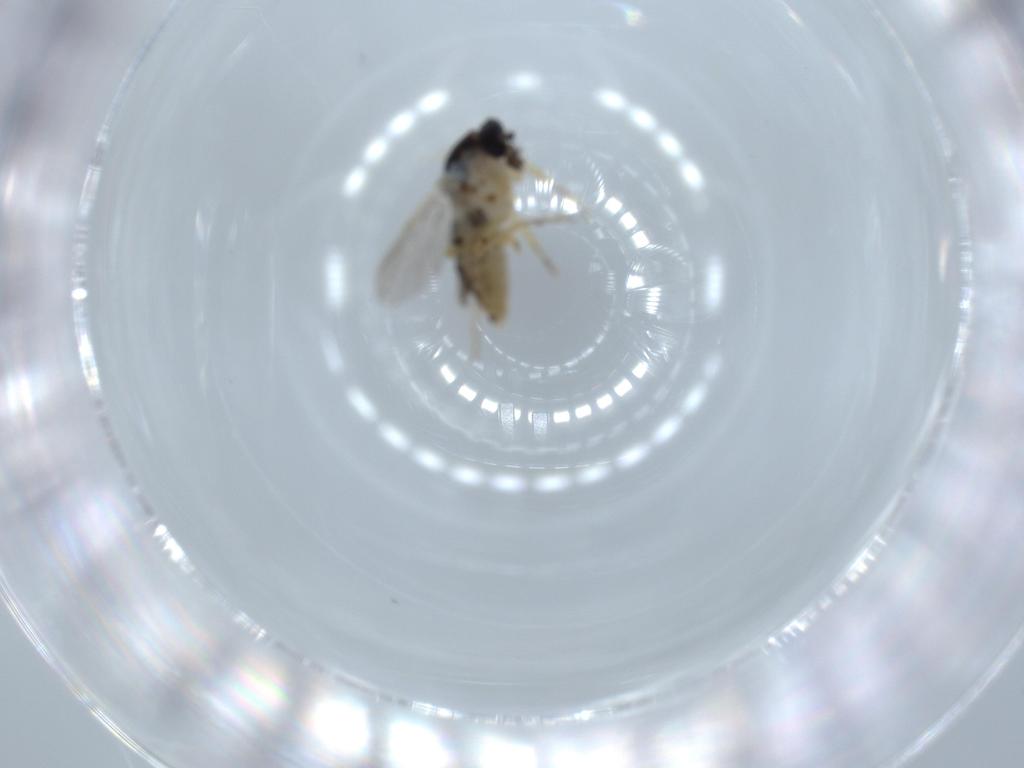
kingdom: Animalia
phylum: Arthropoda
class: Insecta
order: Diptera
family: Ceratopogonidae
